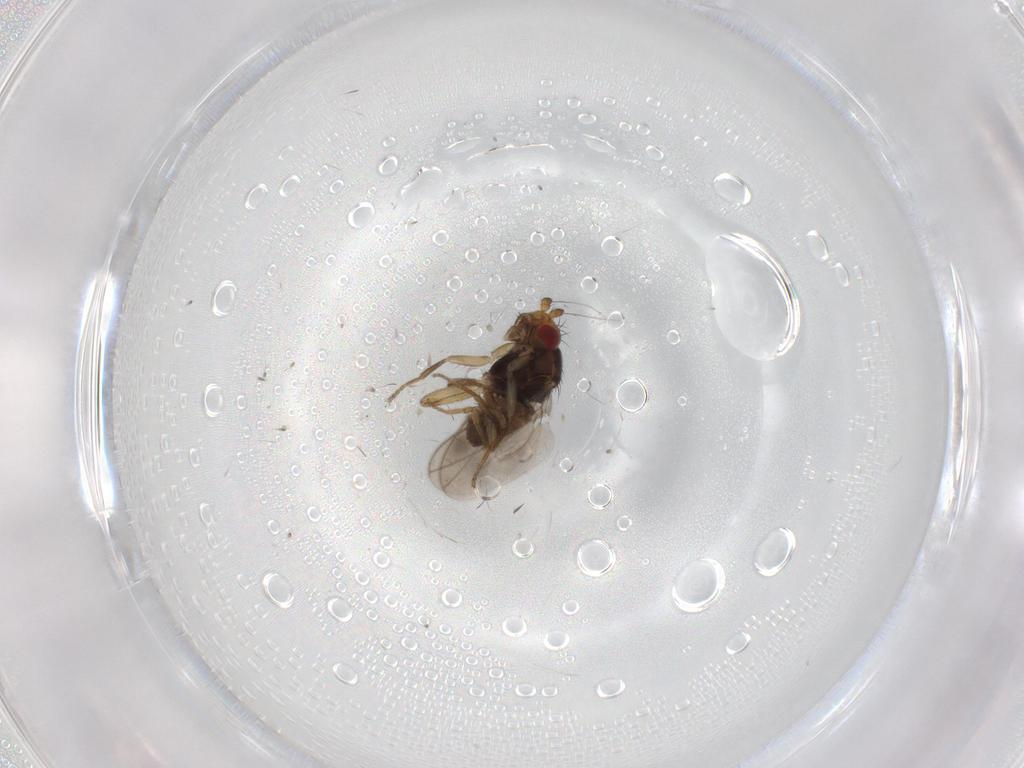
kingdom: Animalia
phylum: Arthropoda
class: Insecta
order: Diptera
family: Sphaeroceridae
